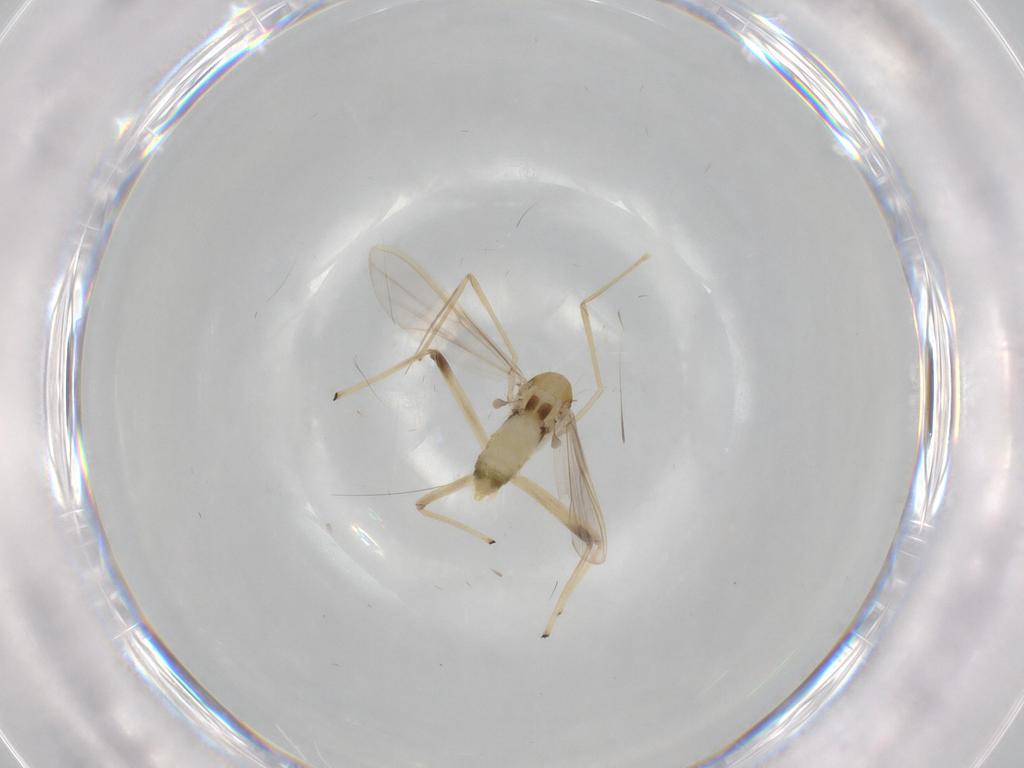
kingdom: Animalia
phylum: Arthropoda
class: Insecta
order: Diptera
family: Chironomidae
